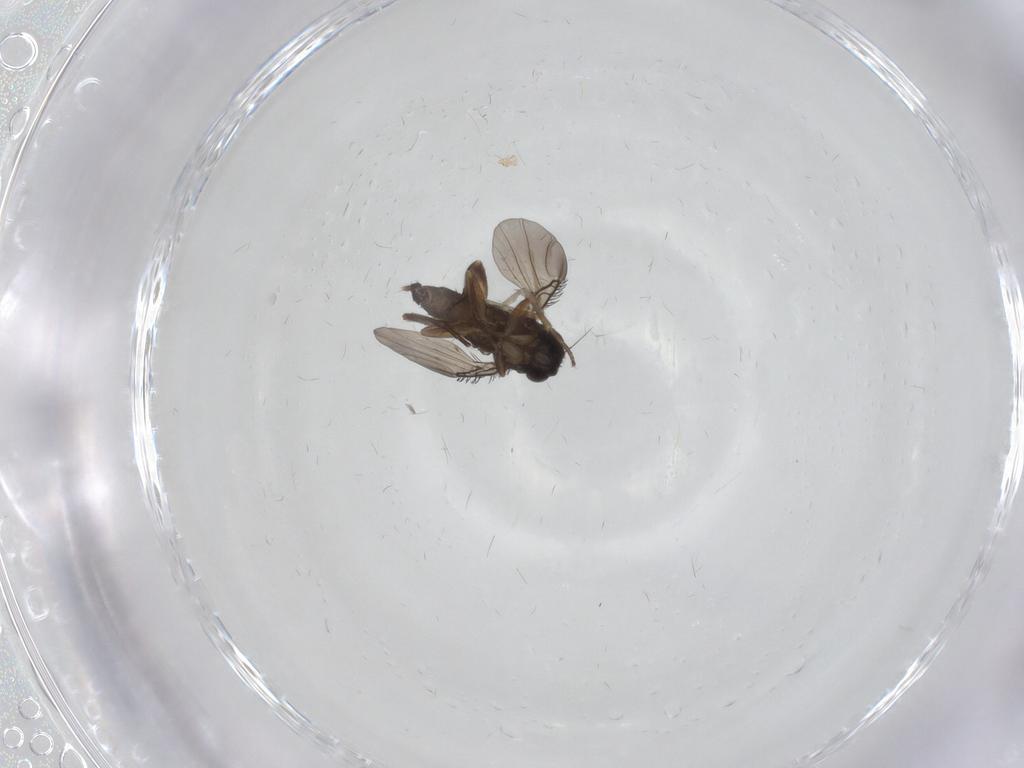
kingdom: Animalia
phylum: Arthropoda
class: Insecta
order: Diptera
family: Phoridae
